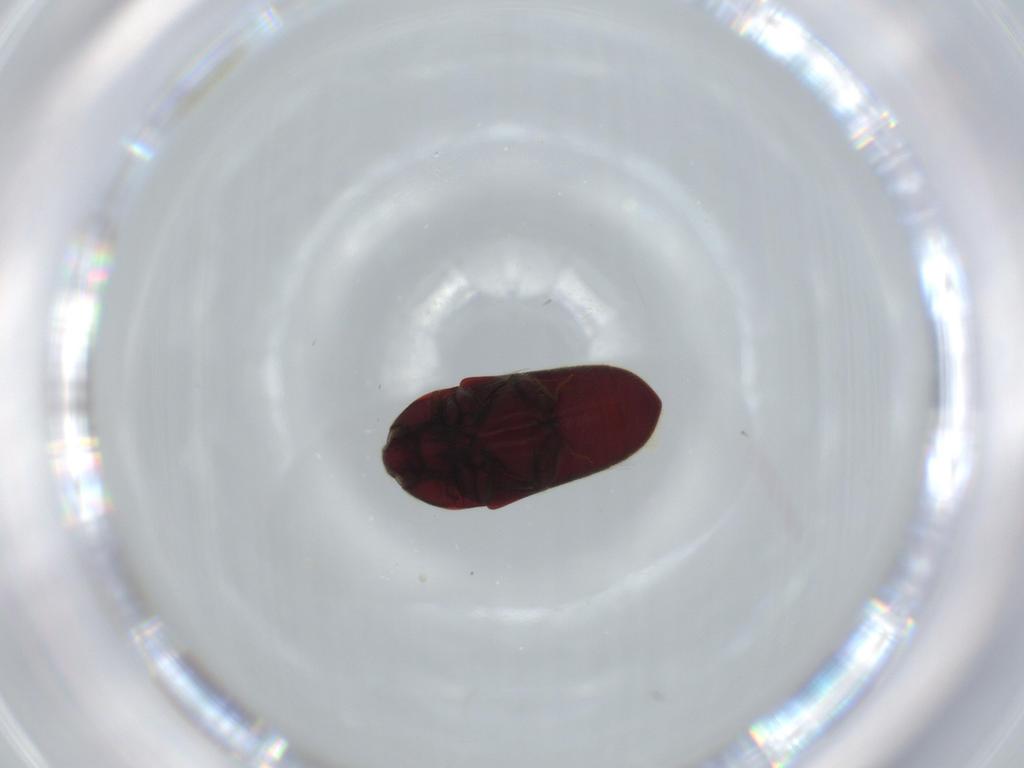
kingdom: Animalia
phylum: Arthropoda
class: Insecta
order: Coleoptera
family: Throscidae
